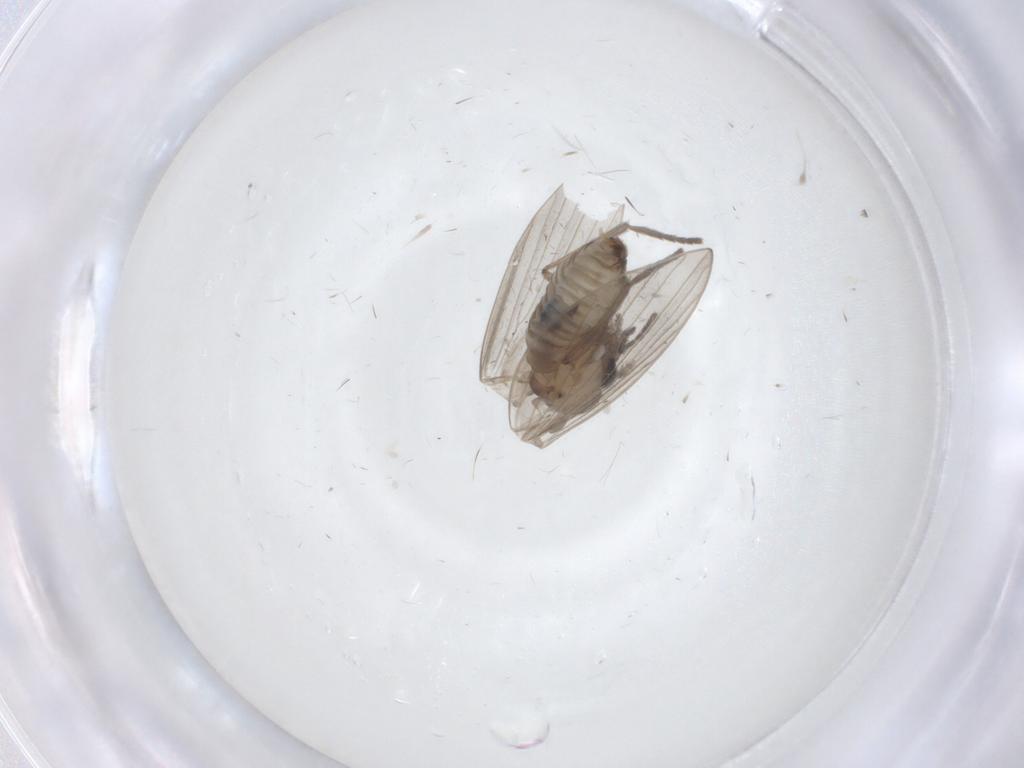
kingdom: Animalia
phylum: Arthropoda
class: Insecta
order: Diptera
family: Psychodidae
